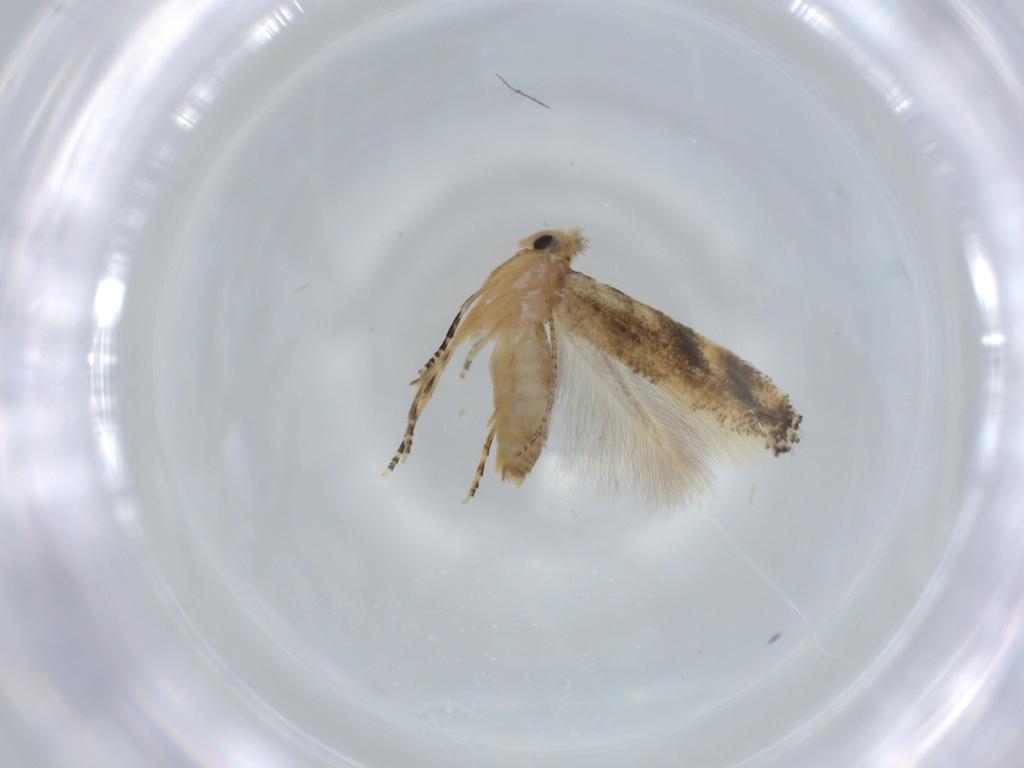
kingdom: Animalia
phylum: Arthropoda
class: Insecta
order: Lepidoptera
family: Bucculatricidae
